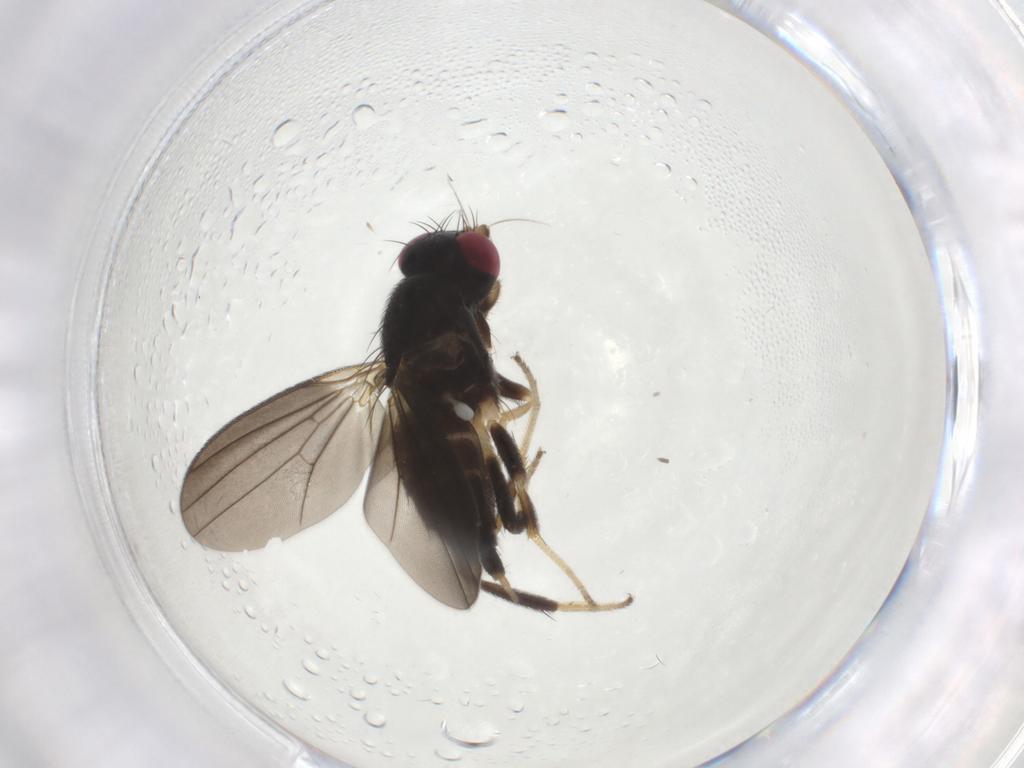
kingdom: Animalia
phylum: Arthropoda
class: Insecta
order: Diptera
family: Clusiidae
